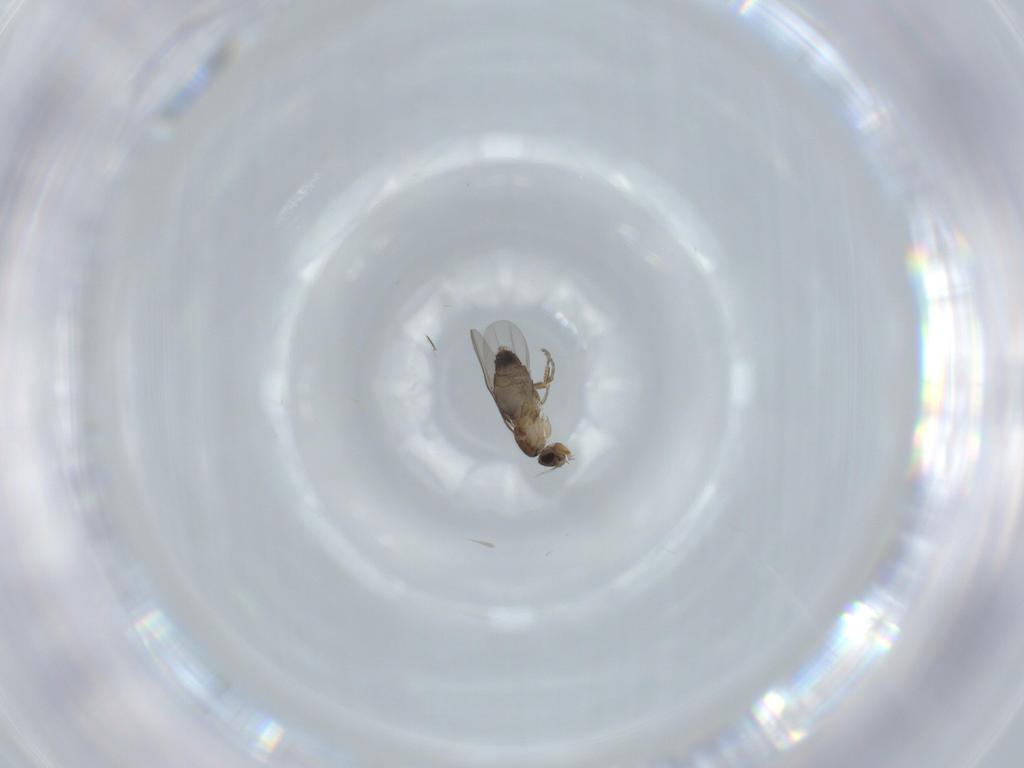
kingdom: Animalia
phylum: Arthropoda
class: Insecta
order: Diptera
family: Phoridae
